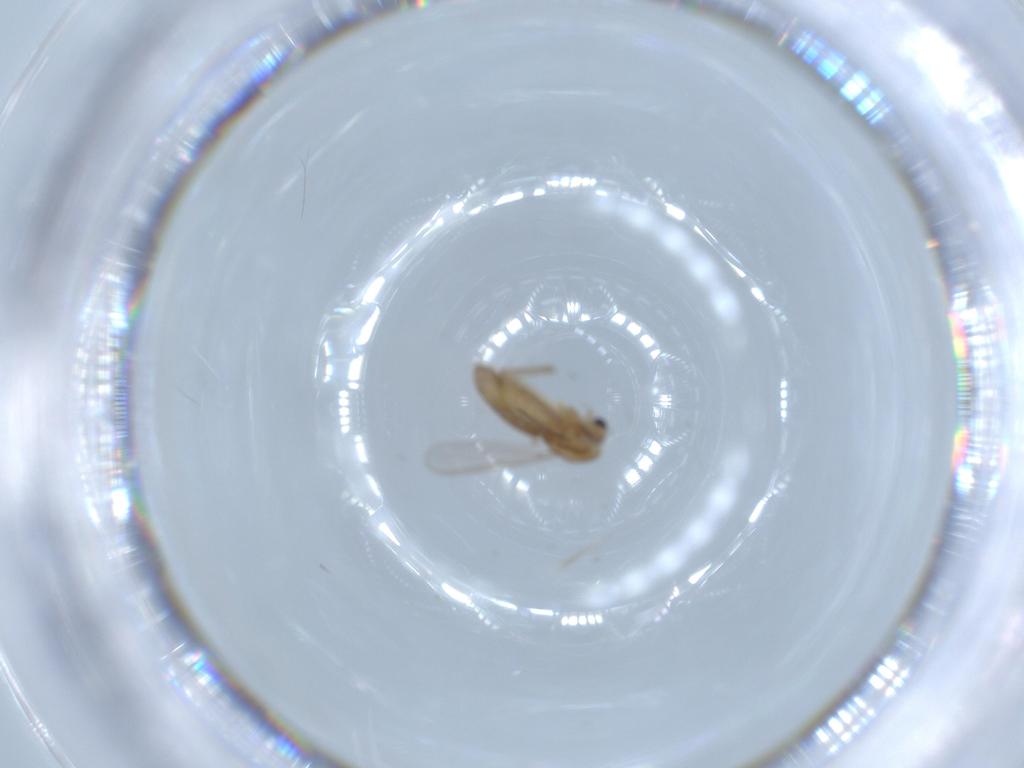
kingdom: Animalia
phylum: Arthropoda
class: Insecta
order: Diptera
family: Chironomidae
